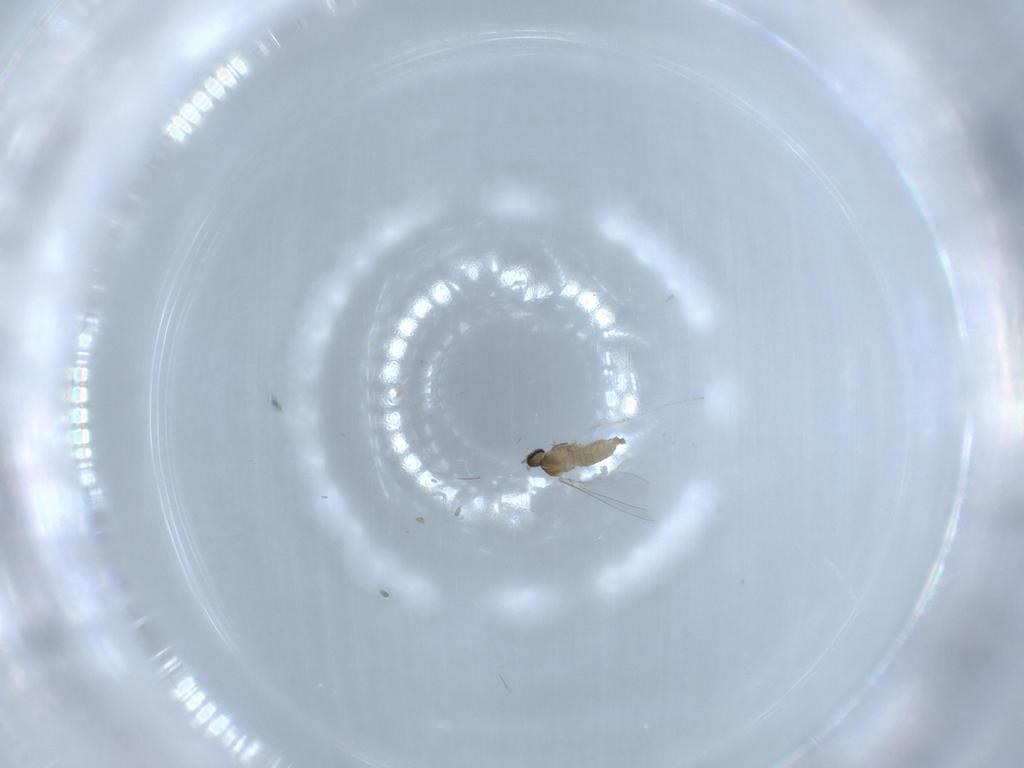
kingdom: Animalia
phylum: Arthropoda
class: Insecta
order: Diptera
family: Cecidomyiidae
